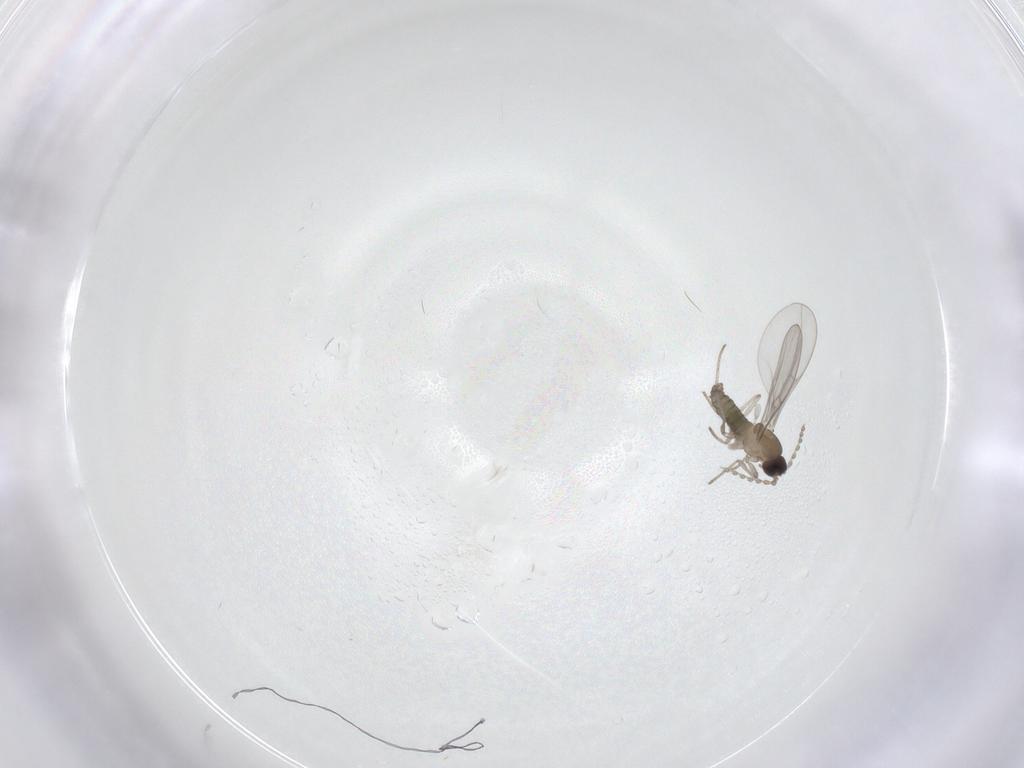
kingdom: Animalia
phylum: Arthropoda
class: Insecta
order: Diptera
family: Cecidomyiidae
